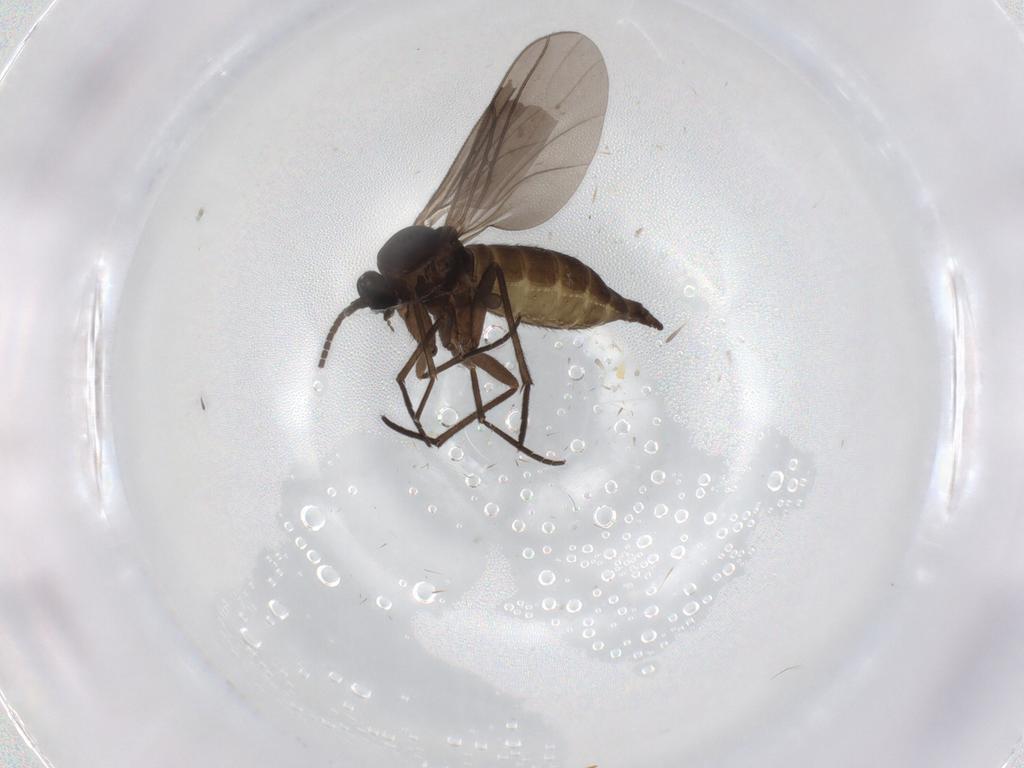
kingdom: Animalia
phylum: Arthropoda
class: Insecta
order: Diptera
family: Sciaridae
